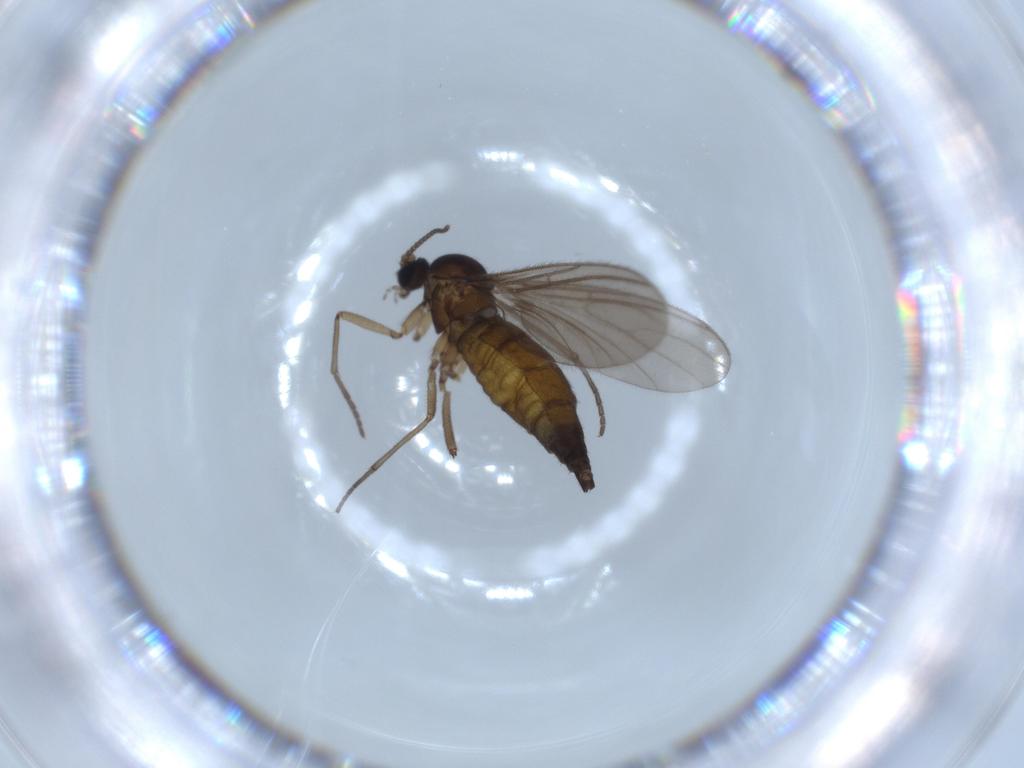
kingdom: Animalia
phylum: Arthropoda
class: Insecta
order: Diptera
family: Sciaridae
